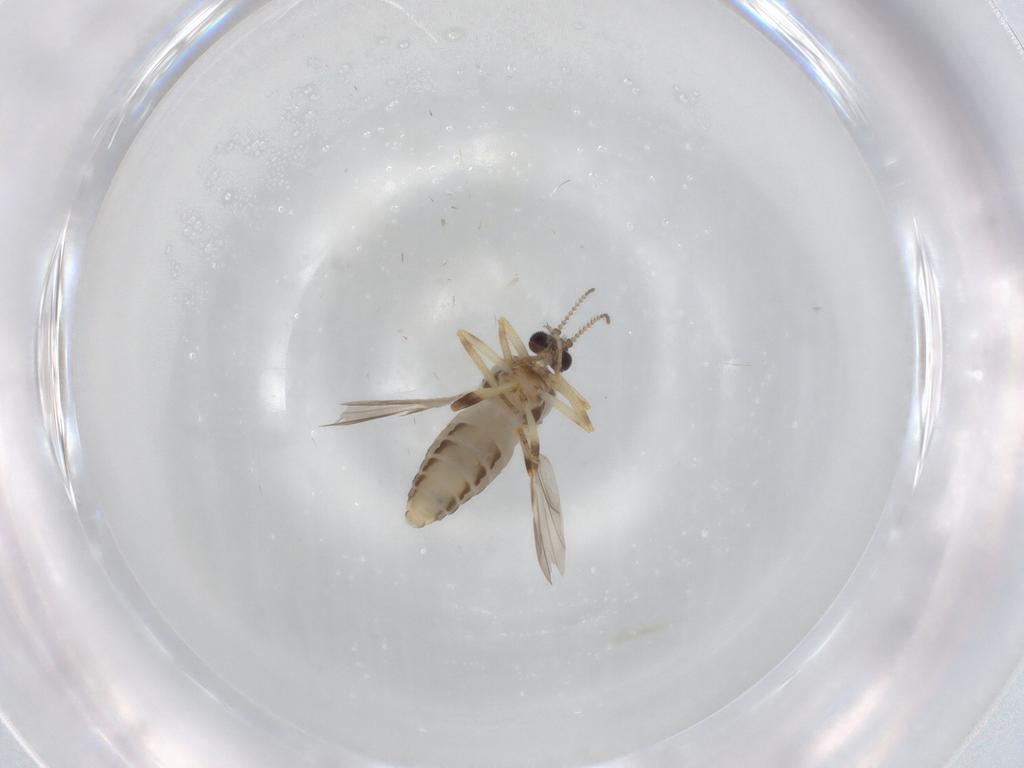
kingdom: Animalia
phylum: Arthropoda
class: Insecta
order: Diptera
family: Ceratopogonidae
